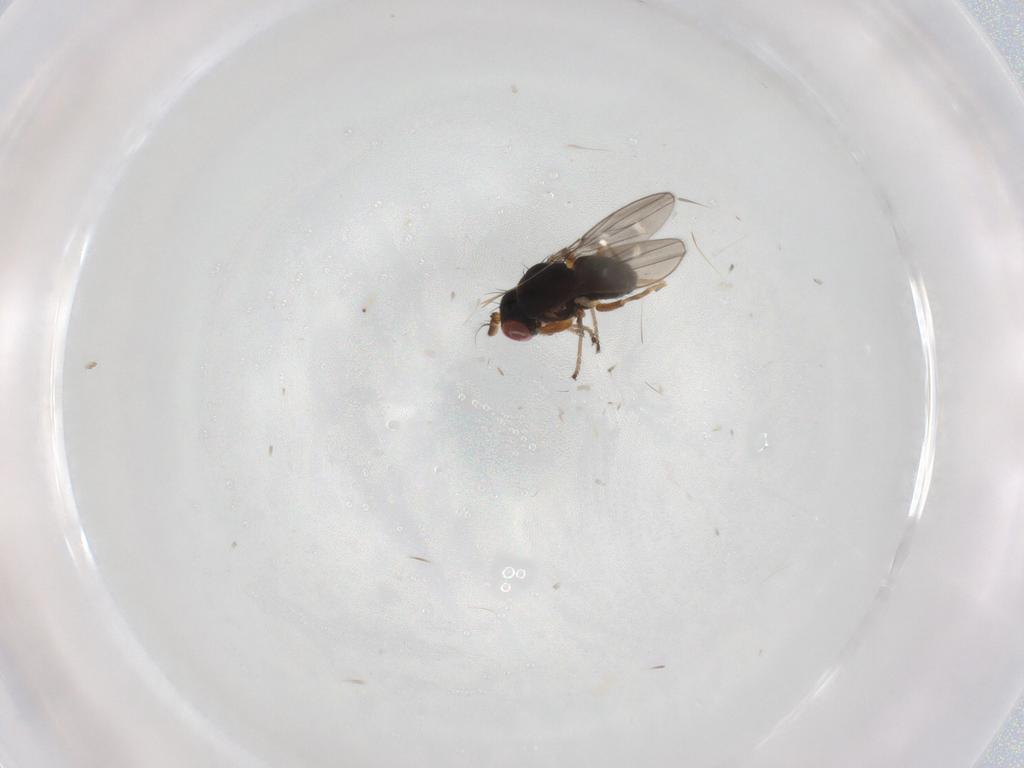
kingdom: Animalia
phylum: Arthropoda
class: Insecta
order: Diptera
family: Ephydridae
